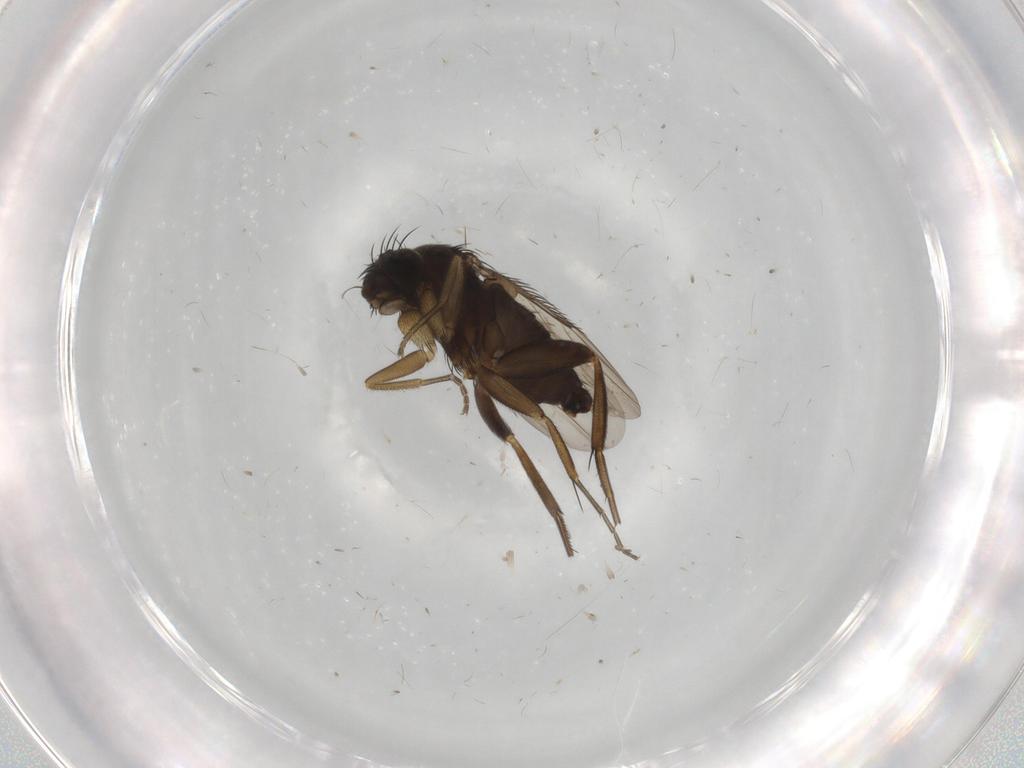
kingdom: Animalia
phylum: Arthropoda
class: Insecta
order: Diptera
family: Phoridae
